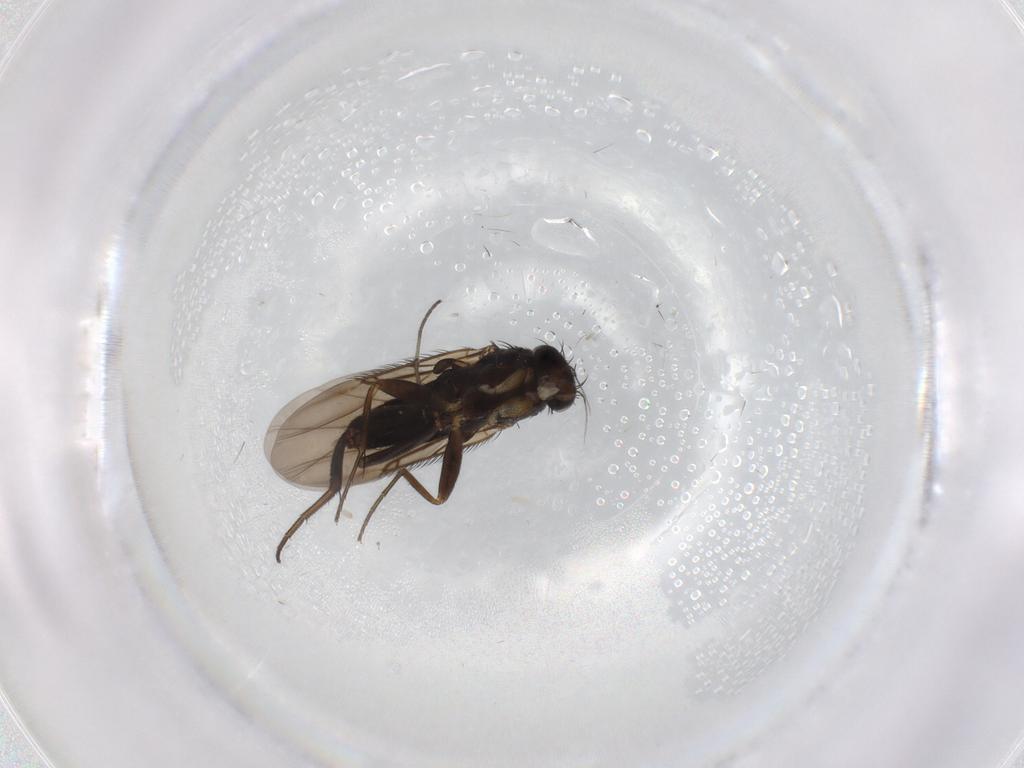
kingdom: Animalia
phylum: Arthropoda
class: Insecta
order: Diptera
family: Phoridae
